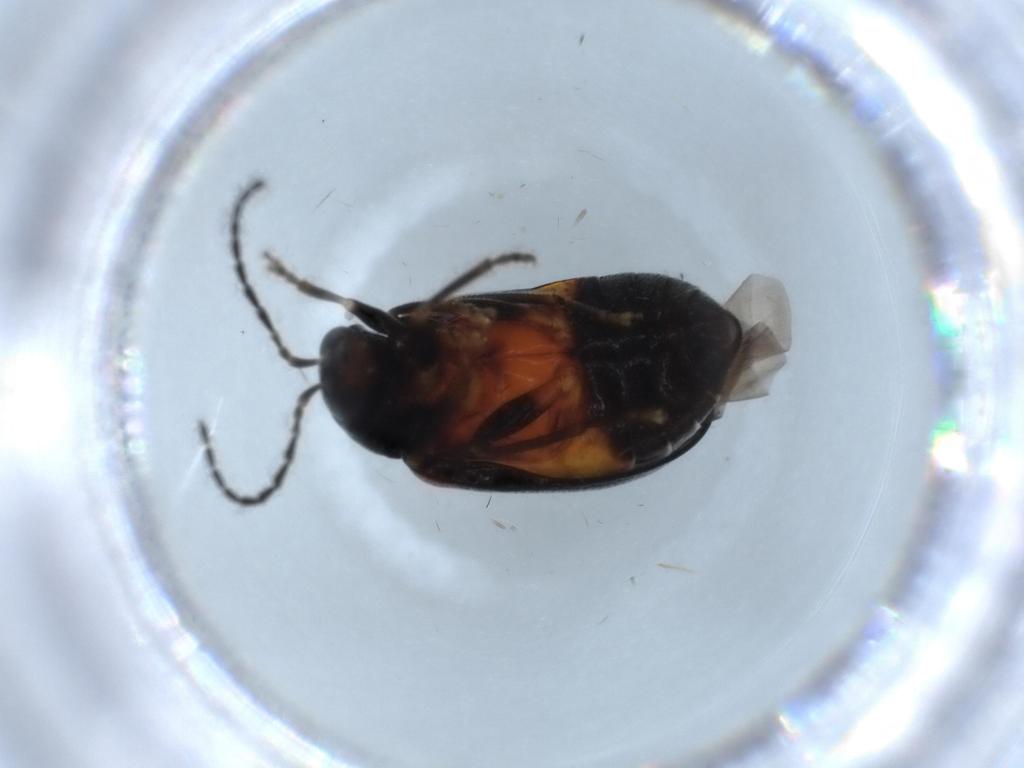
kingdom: Animalia
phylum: Arthropoda
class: Insecta
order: Coleoptera
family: Chrysomelidae
